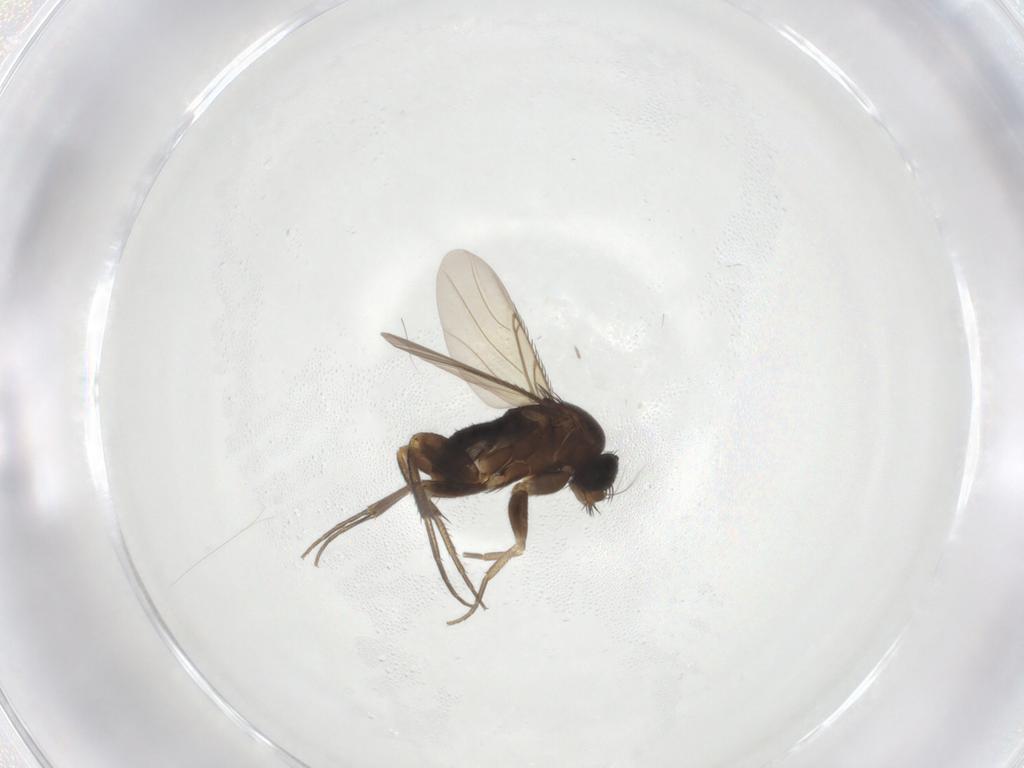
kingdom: Animalia
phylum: Arthropoda
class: Insecta
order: Diptera
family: Phoridae
